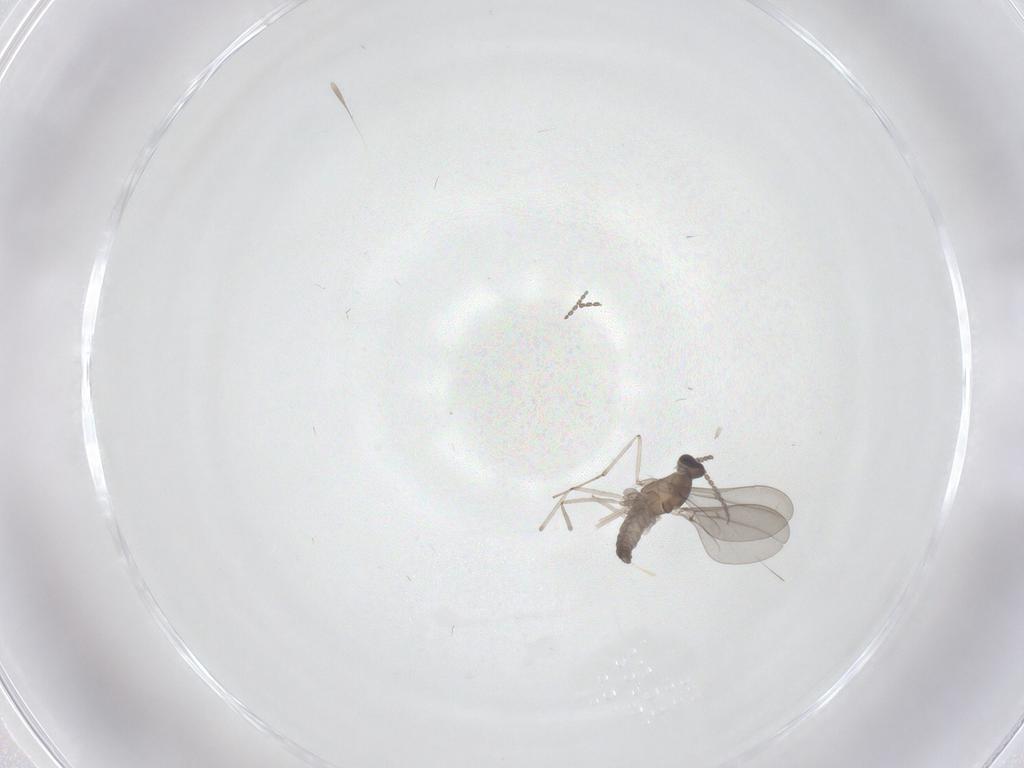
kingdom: Animalia
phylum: Arthropoda
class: Insecta
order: Diptera
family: Cecidomyiidae
